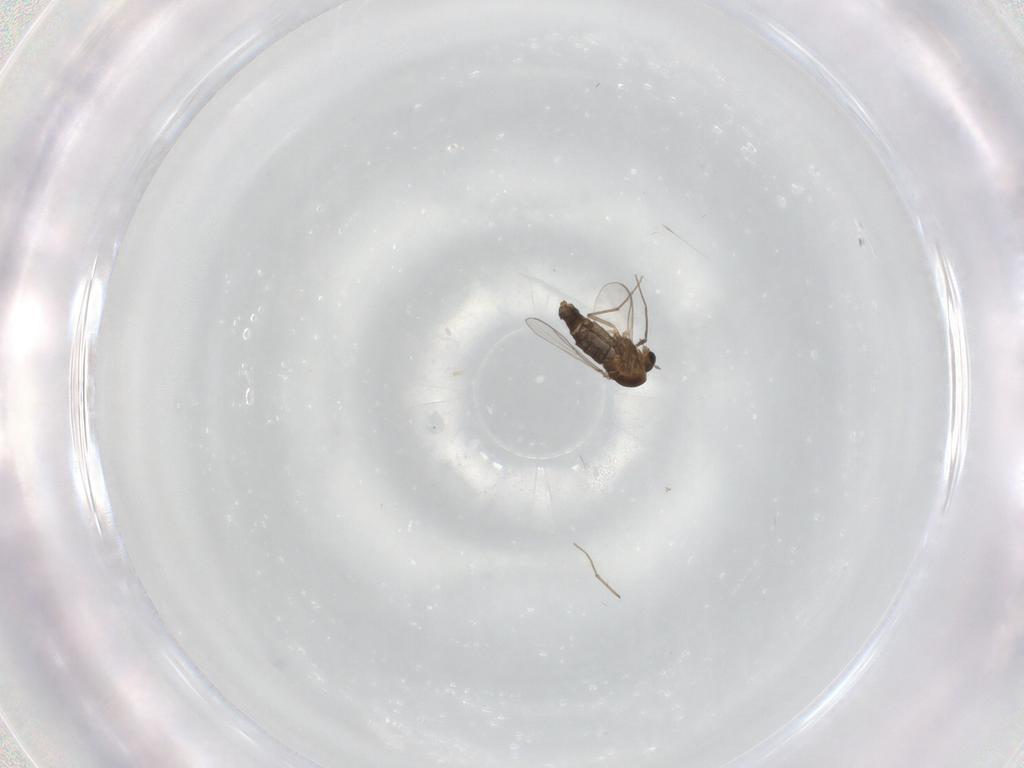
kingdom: Animalia
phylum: Arthropoda
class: Insecta
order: Diptera
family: Chironomidae
